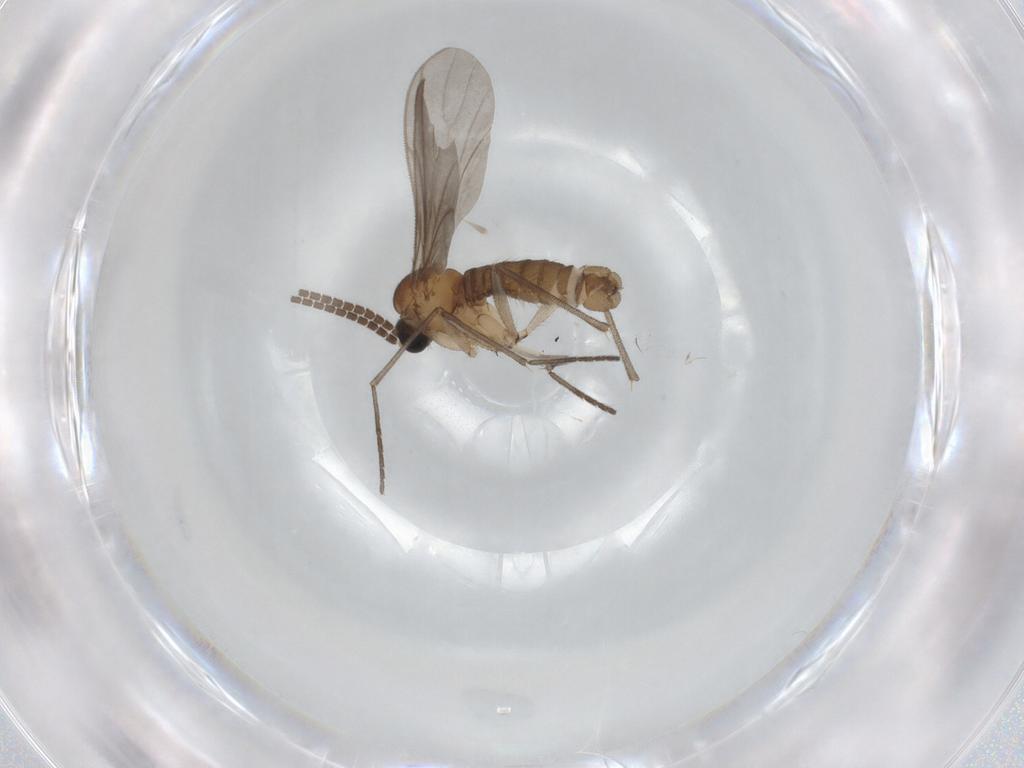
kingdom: Animalia
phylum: Arthropoda
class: Insecta
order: Diptera
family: Sciaridae
